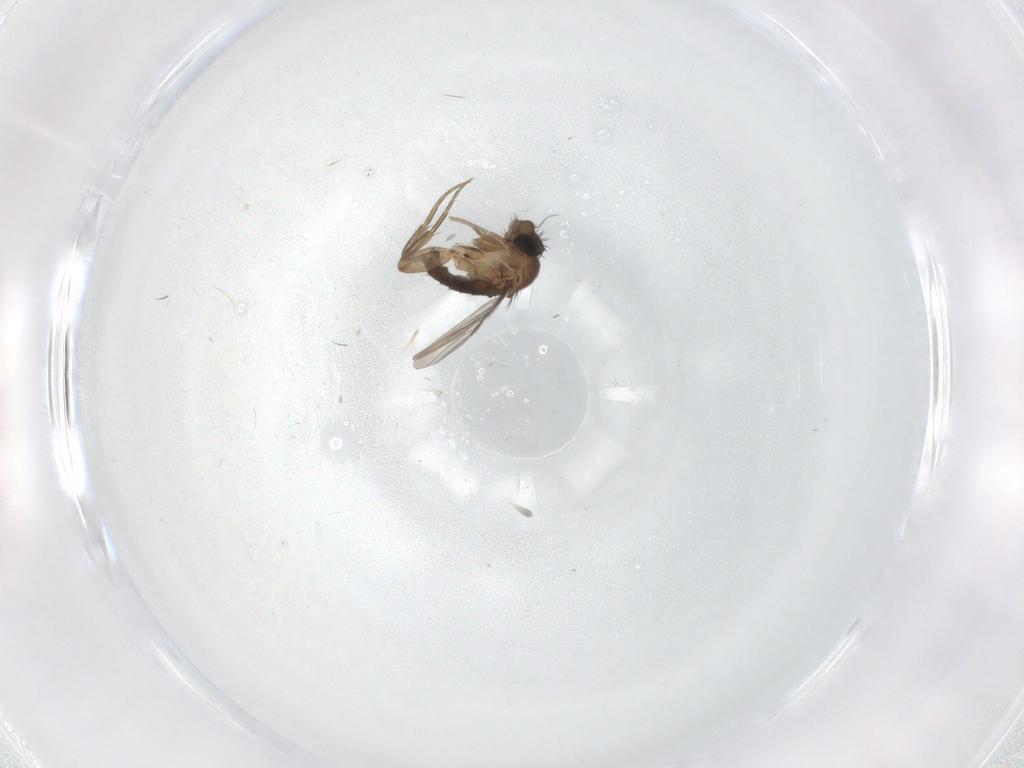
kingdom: Animalia
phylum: Arthropoda
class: Insecta
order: Diptera
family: Phoridae
